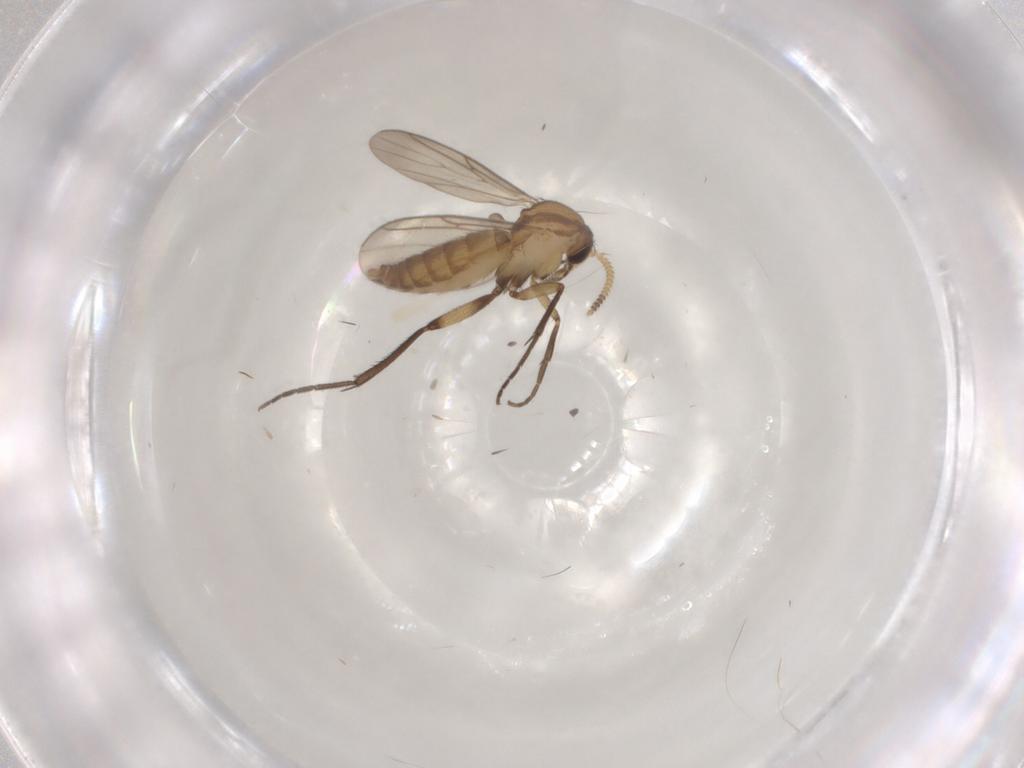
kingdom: Animalia
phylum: Arthropoda
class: Insecta
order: Diptera
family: Mycetophilidae
